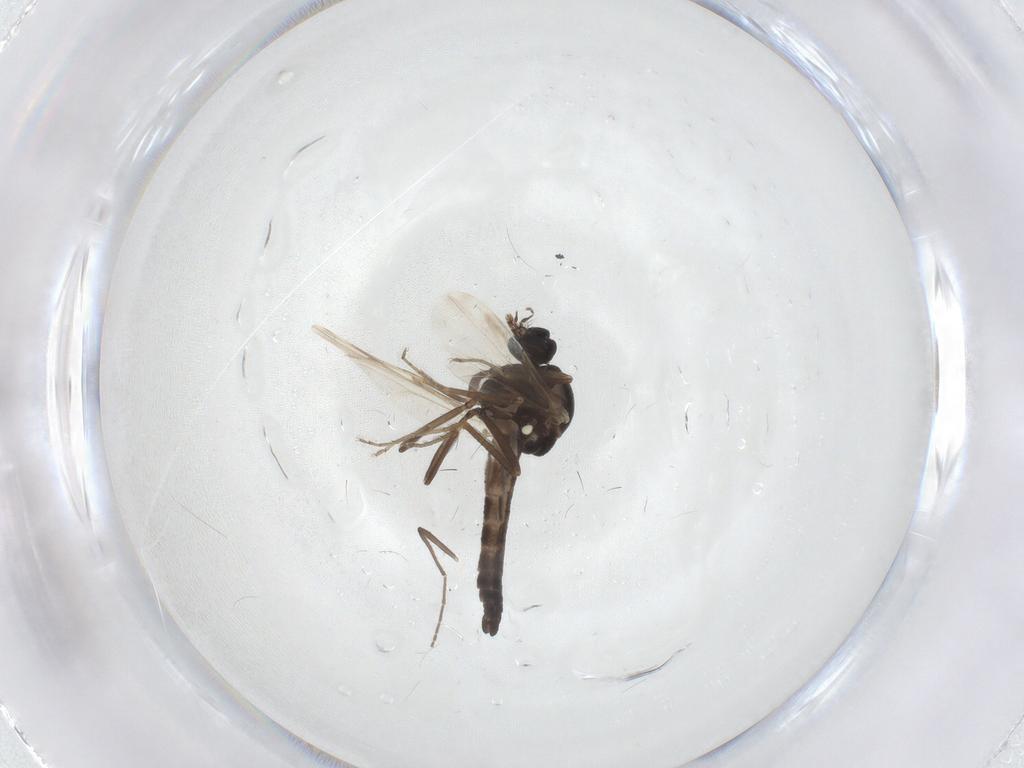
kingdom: Animalia
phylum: Arthropoda
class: Insecta
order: Diptera
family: Ceratopogonidae
